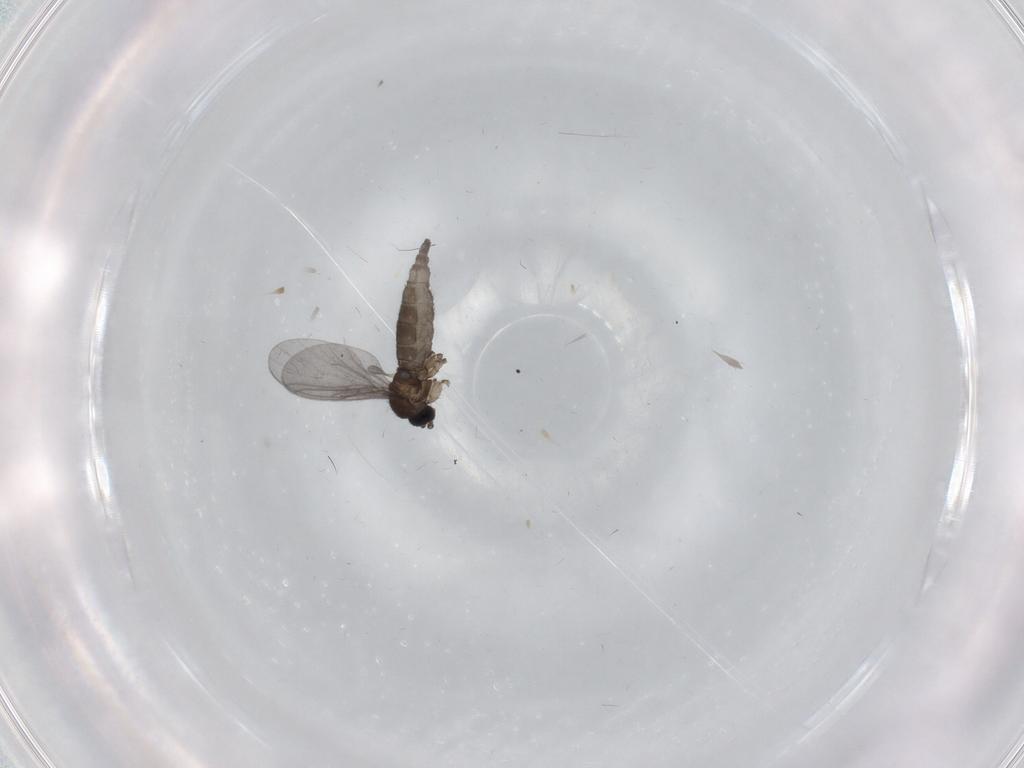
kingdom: Animalia
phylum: Arthropoda
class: Insecta
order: Diptera
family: Sciaridae
